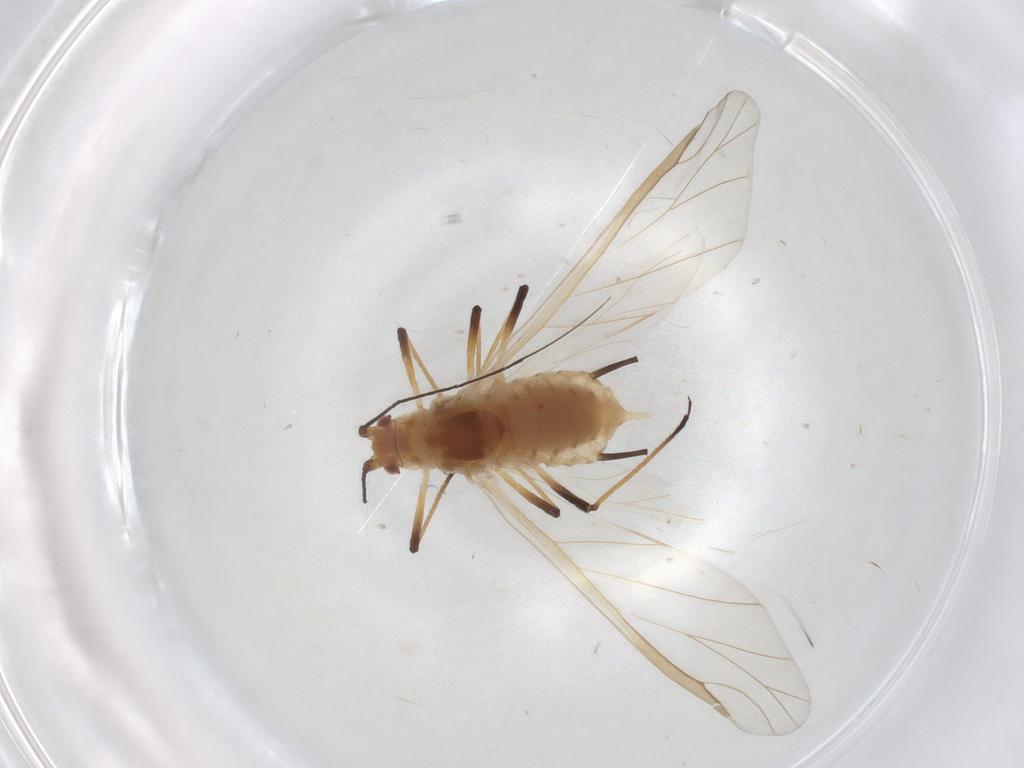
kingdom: Animalia
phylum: Arthropoda
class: Insecta
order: Hemiptera
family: Aphididae
